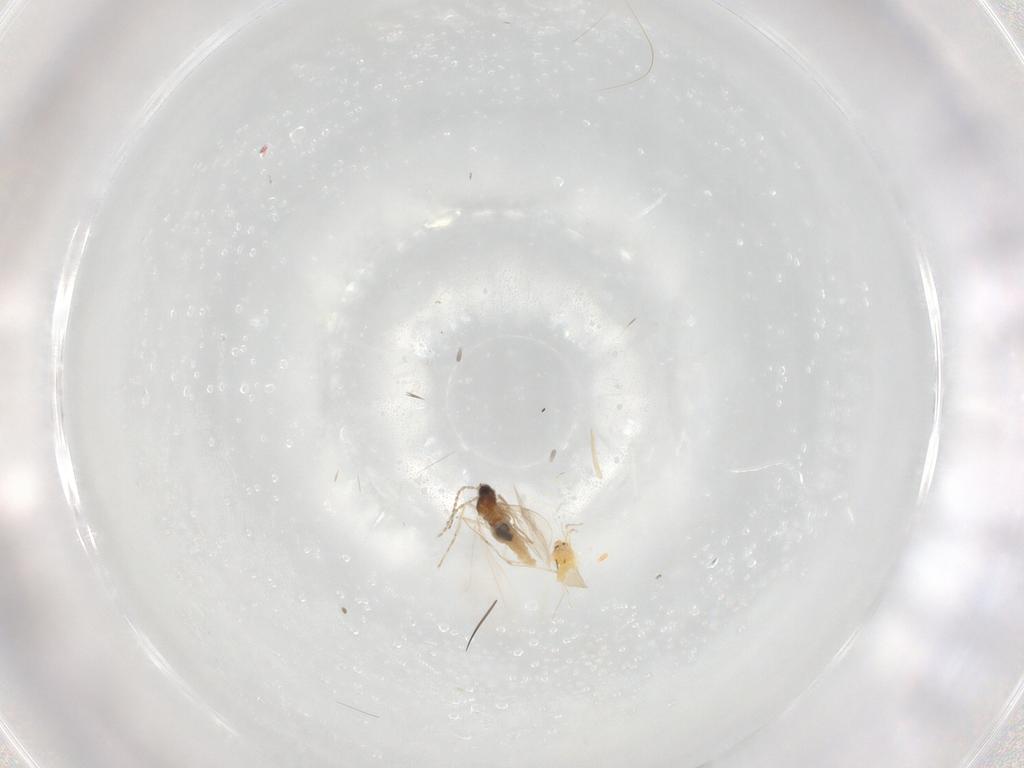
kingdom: Animalia
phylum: Arthropoda
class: Insecta
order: Diptera
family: Cecidomyiidae
